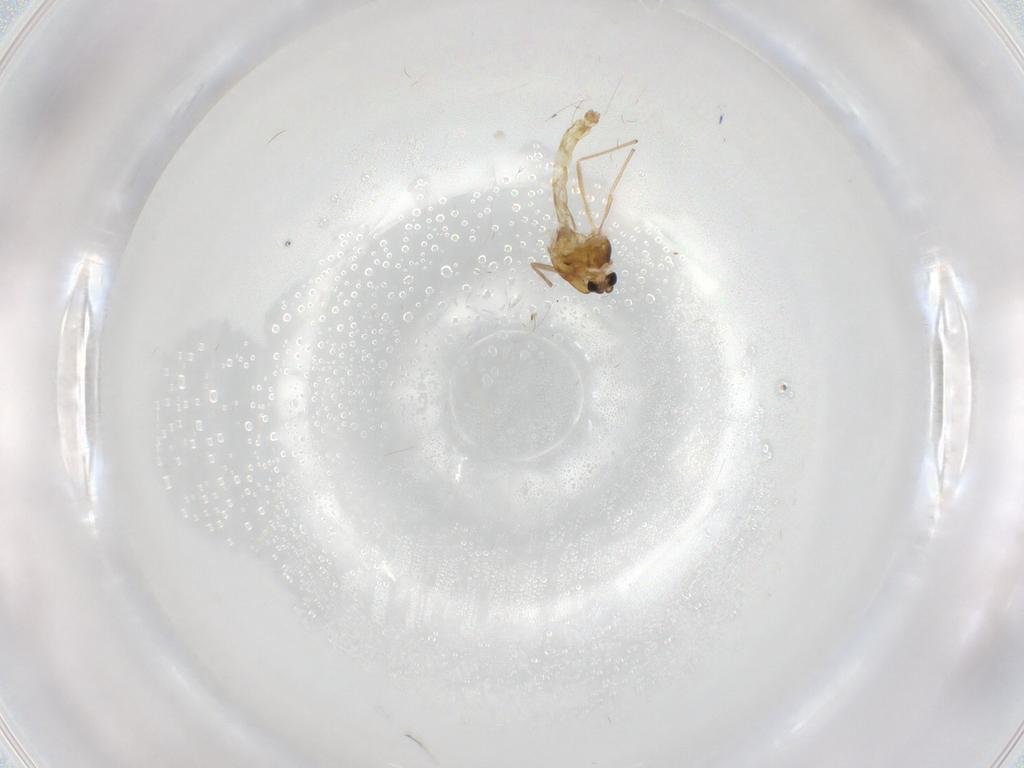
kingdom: Animalia
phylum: Arthropoda
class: Insecta
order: Diptera
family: Chironomidae
